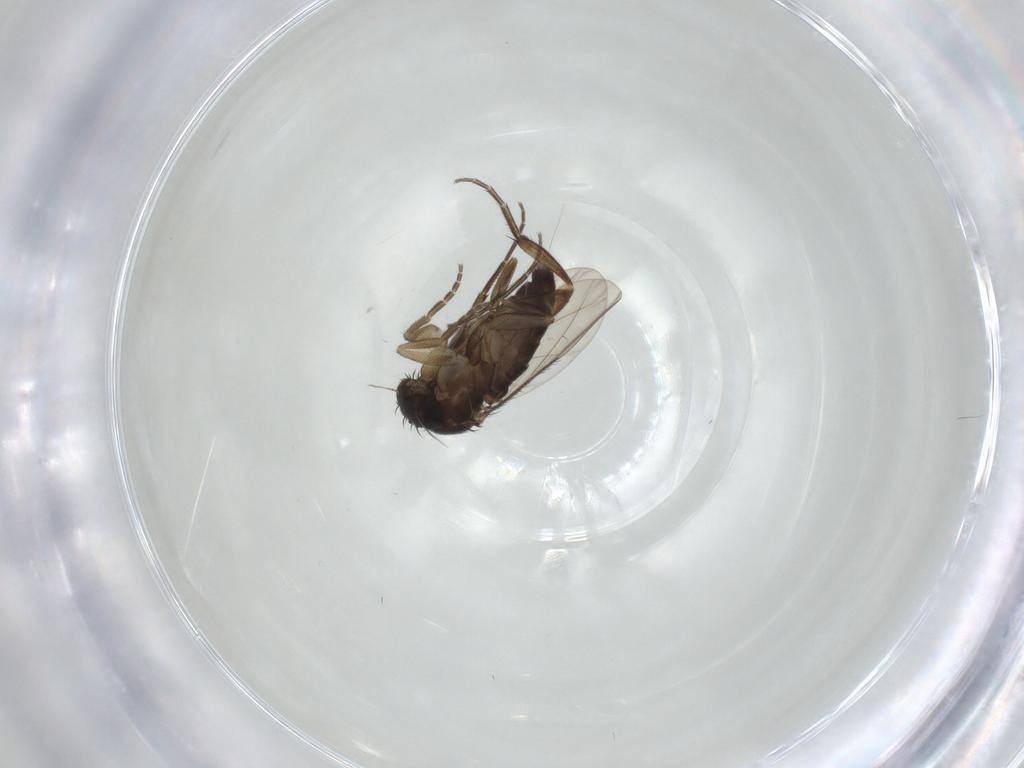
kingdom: Animalia
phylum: Arthropoda
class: Insecta
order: Diptera
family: Phoridae
